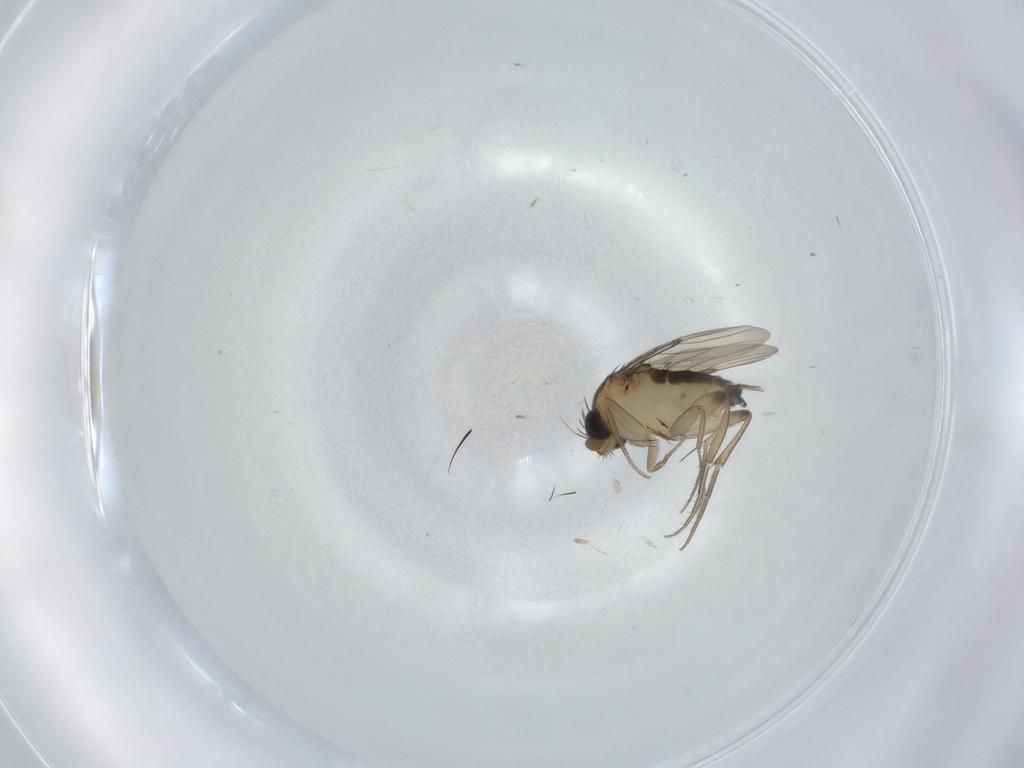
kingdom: Animalia
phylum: Arthropoda
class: Insecta
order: Diptera
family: Phoridae
